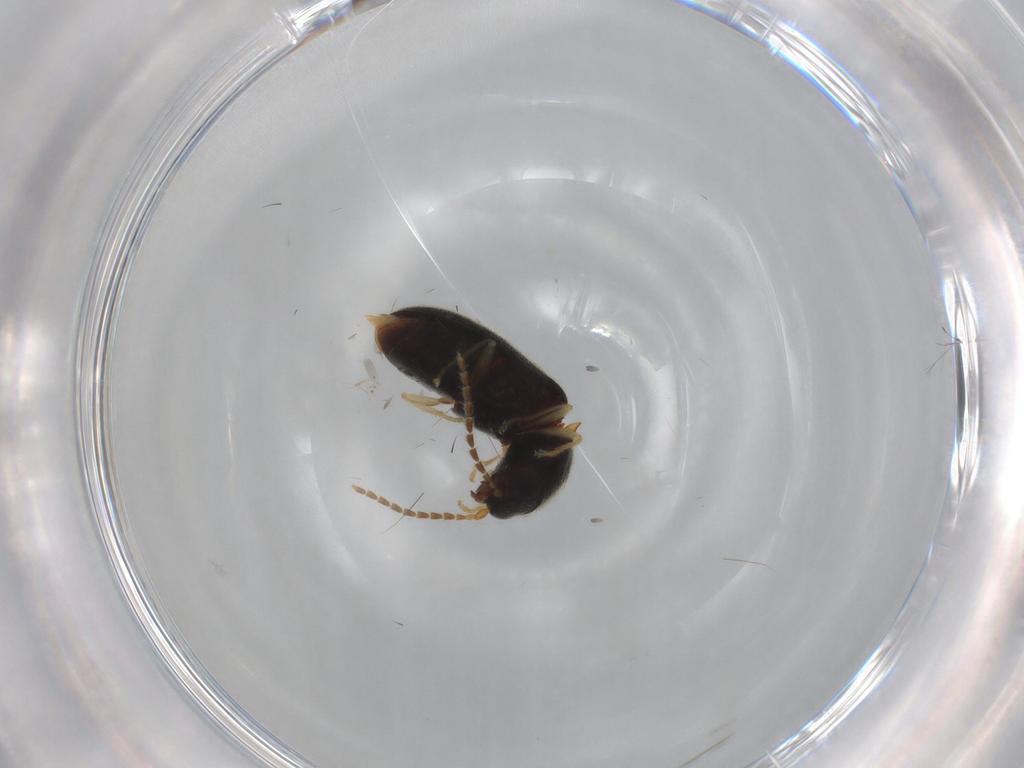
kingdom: Animalia
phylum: Arthropoda
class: Insecta
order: Coleoptera
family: Elateridae
